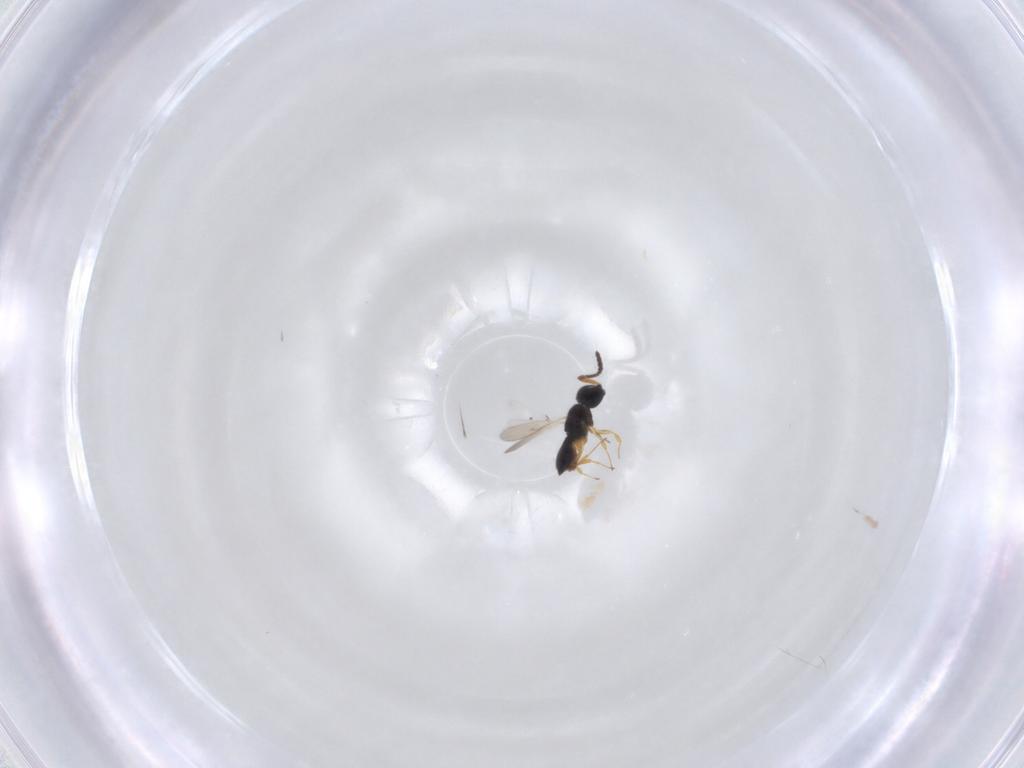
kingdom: Animalia
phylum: Arthropoda
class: Insecta
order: Hymenoptera
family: Scelionidae
